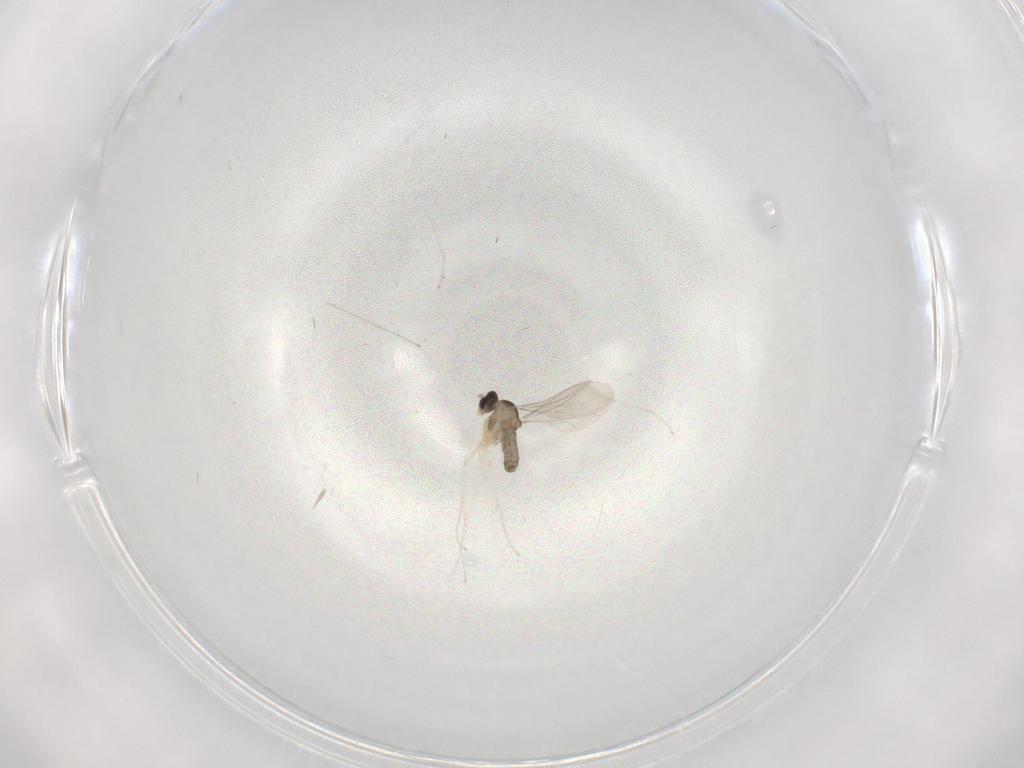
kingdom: Animalia
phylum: Arthropoda
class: Insecta
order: Diptera
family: Cecidomyiidae
